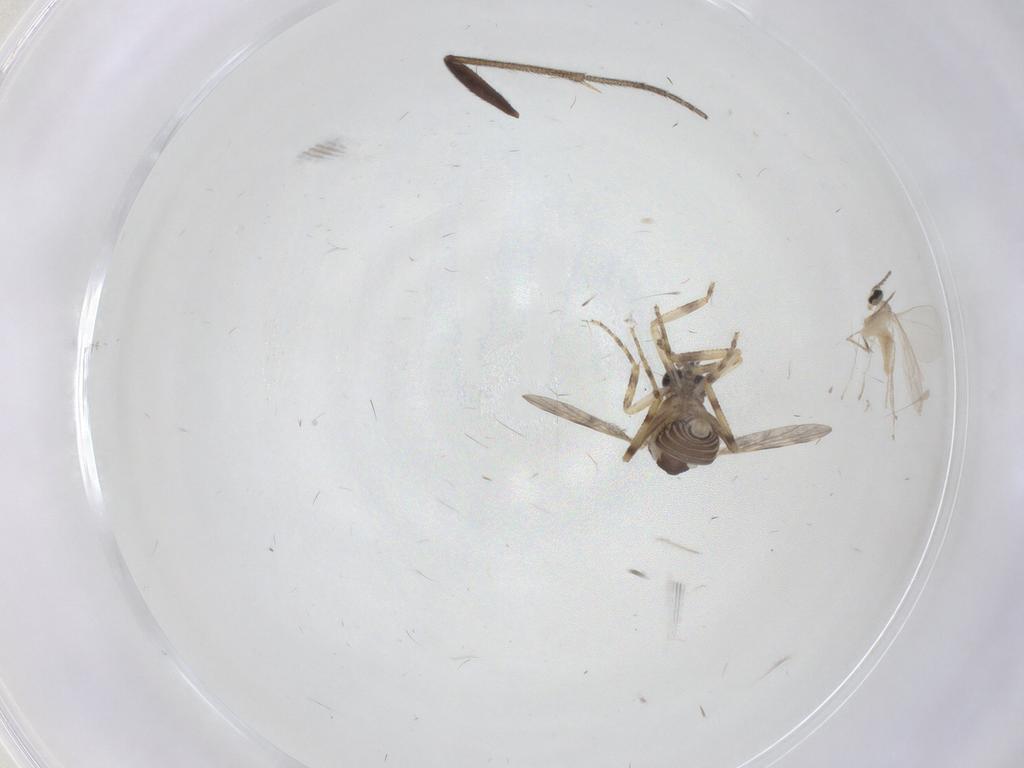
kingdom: Animalia
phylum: Arthropoda
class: Insecta
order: Diptera
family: Ceratopogonidae
